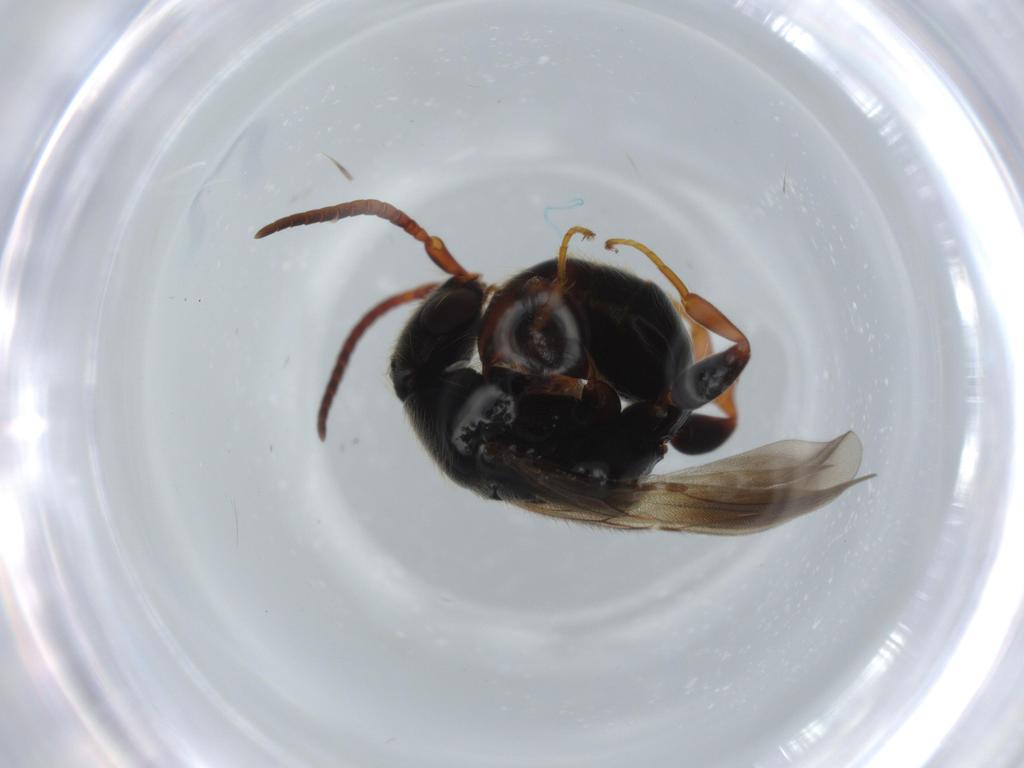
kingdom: Animalia
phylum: Arthropoda
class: Insecta
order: Hymenoptera
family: Bethylidae
